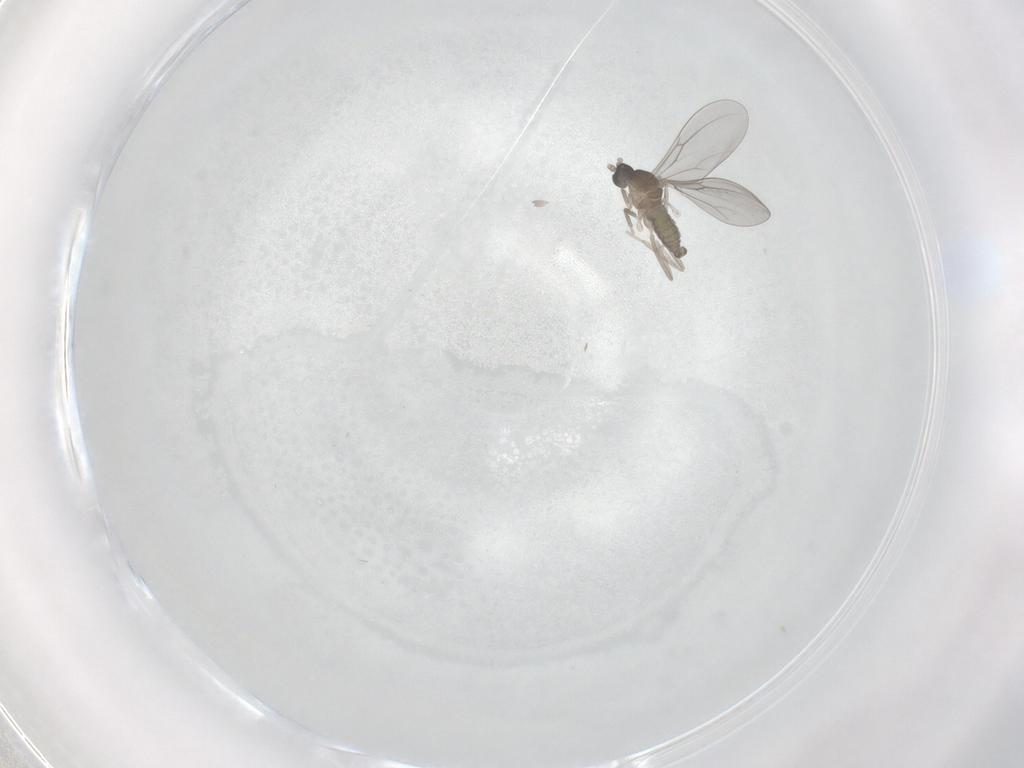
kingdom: Animalia
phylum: Arthropoda
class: Insecta
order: Diptera
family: Cecidomyiidae
